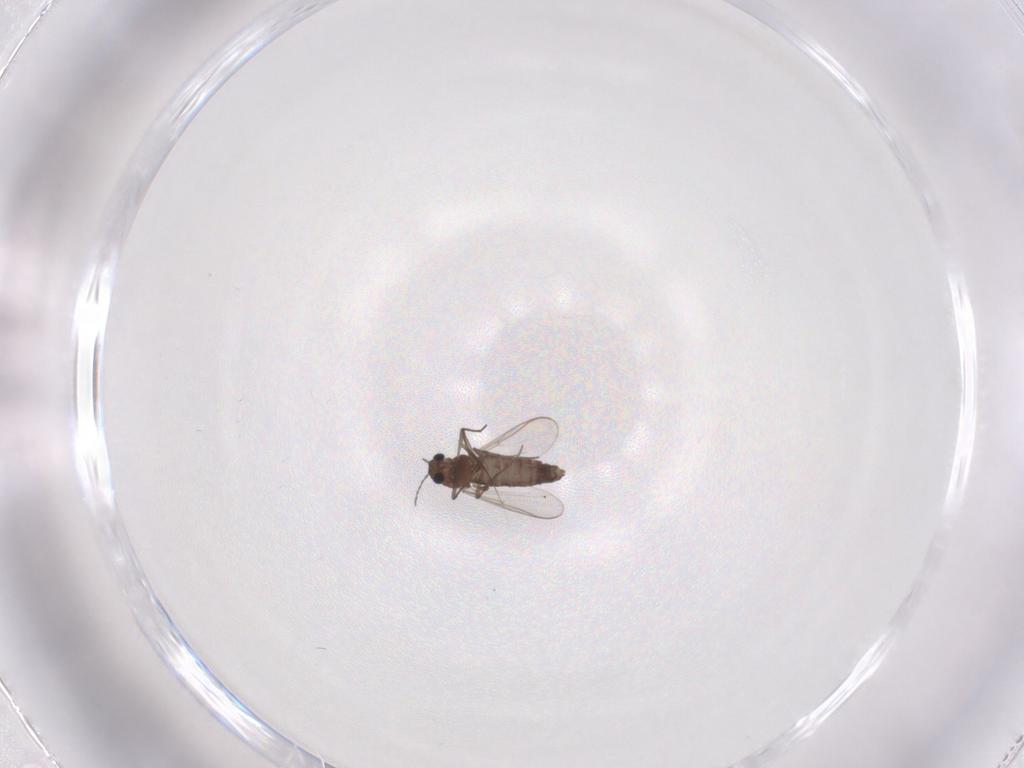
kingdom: Animalia
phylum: Arthropoda
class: Insecta
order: Diptera
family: Chironomidae
